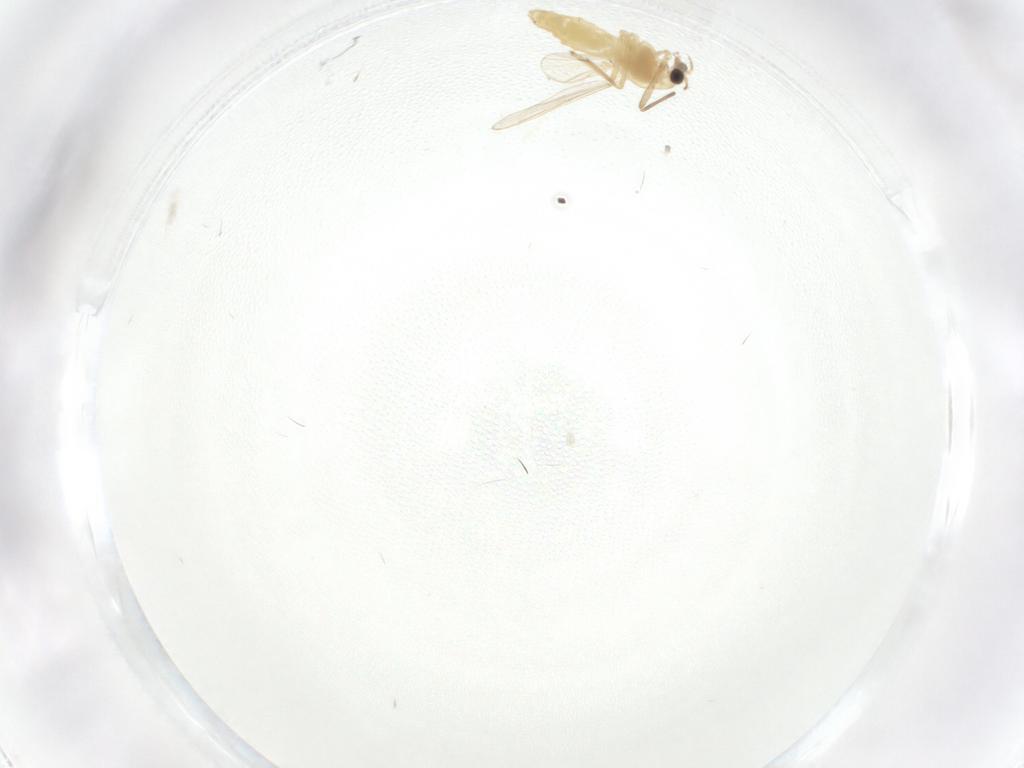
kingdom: Animalia
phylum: Arthropoda
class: Insecta
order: Diptera
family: Chironomidae
